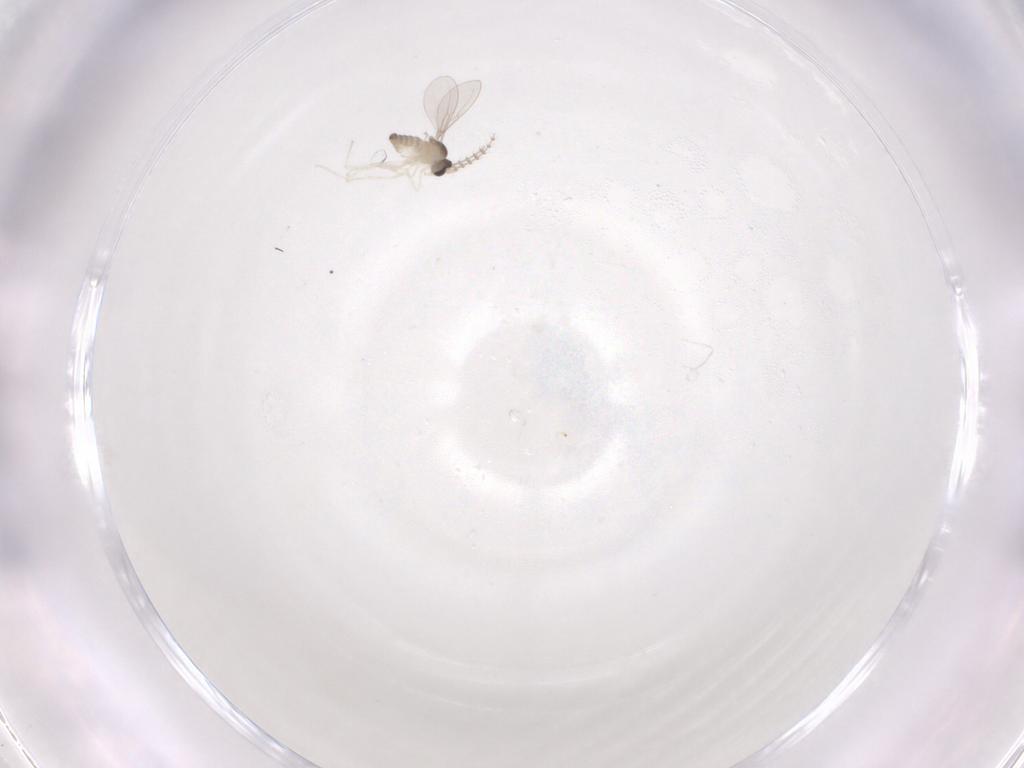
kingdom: Animalia
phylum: Arthropoda
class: Insecta
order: Diptera
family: Cecidomyiidae
